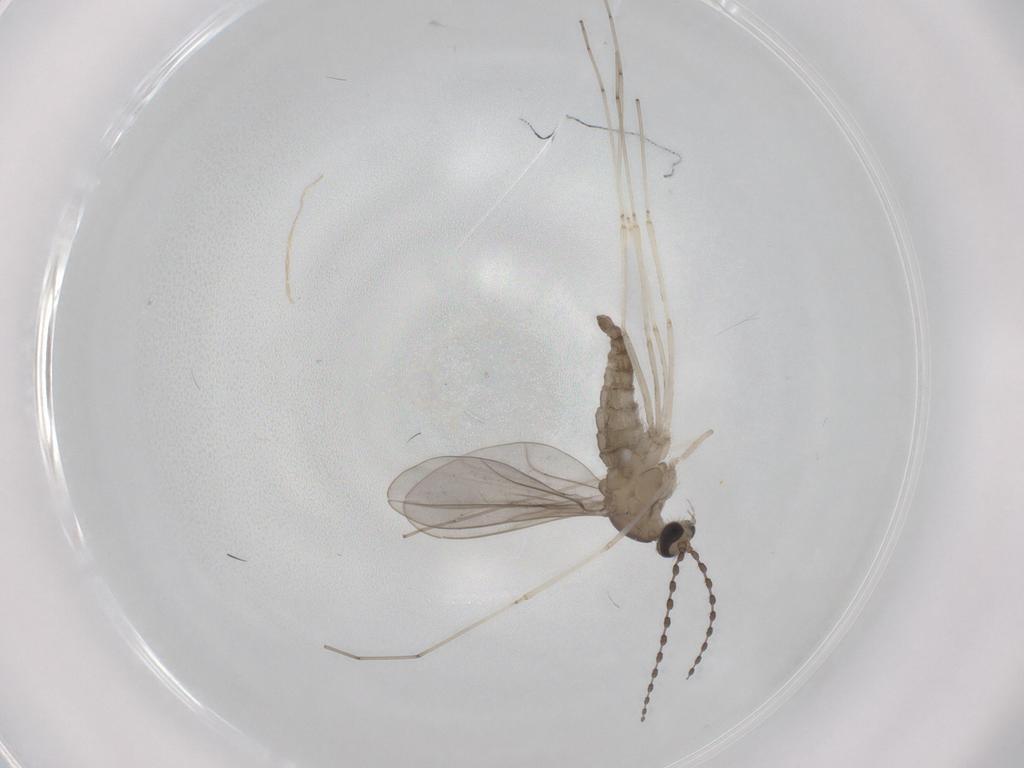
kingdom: Animalia
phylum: Arthropoda
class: Insecta
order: Diptera
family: Cecidomyiidae
